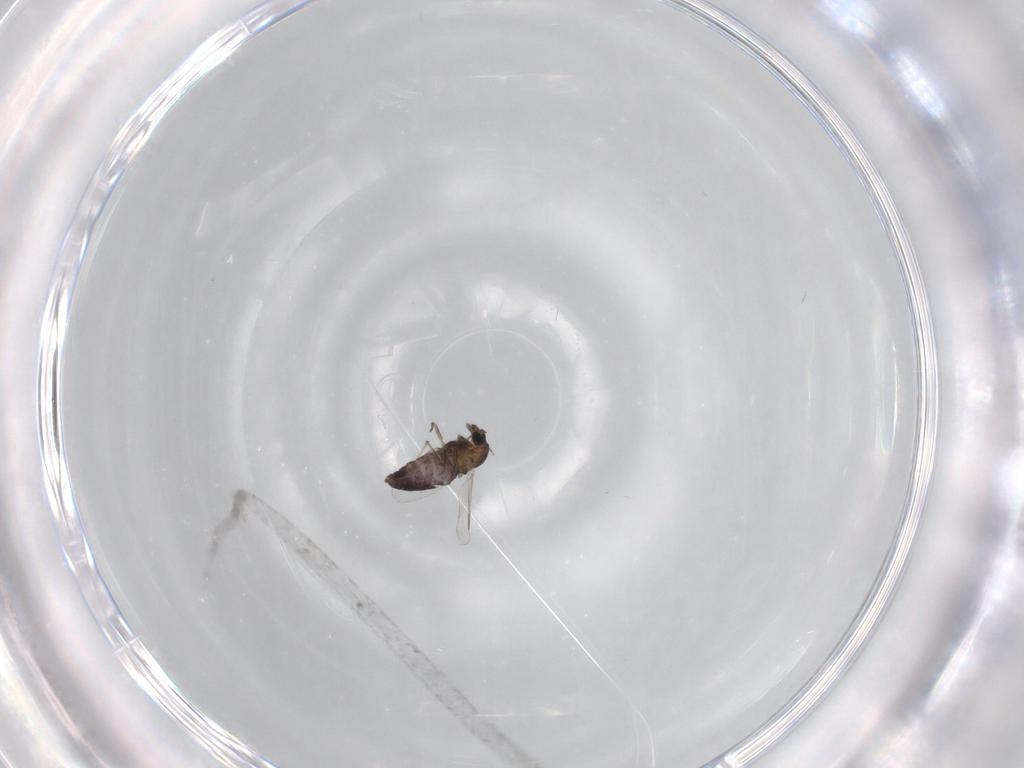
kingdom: Animalia
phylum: Arthropoda
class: Insecta
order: Diptera
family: Chironomidae
